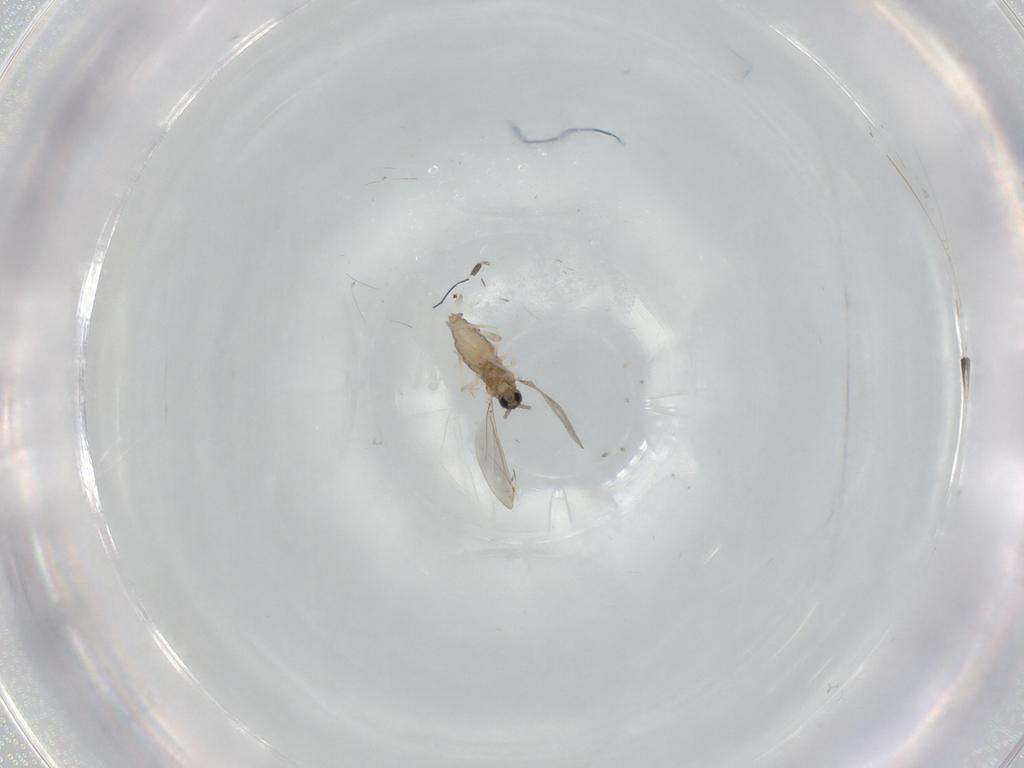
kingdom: Animalia
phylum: Arthropoda
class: Insecta
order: Diptera
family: Cecidomyiidae
